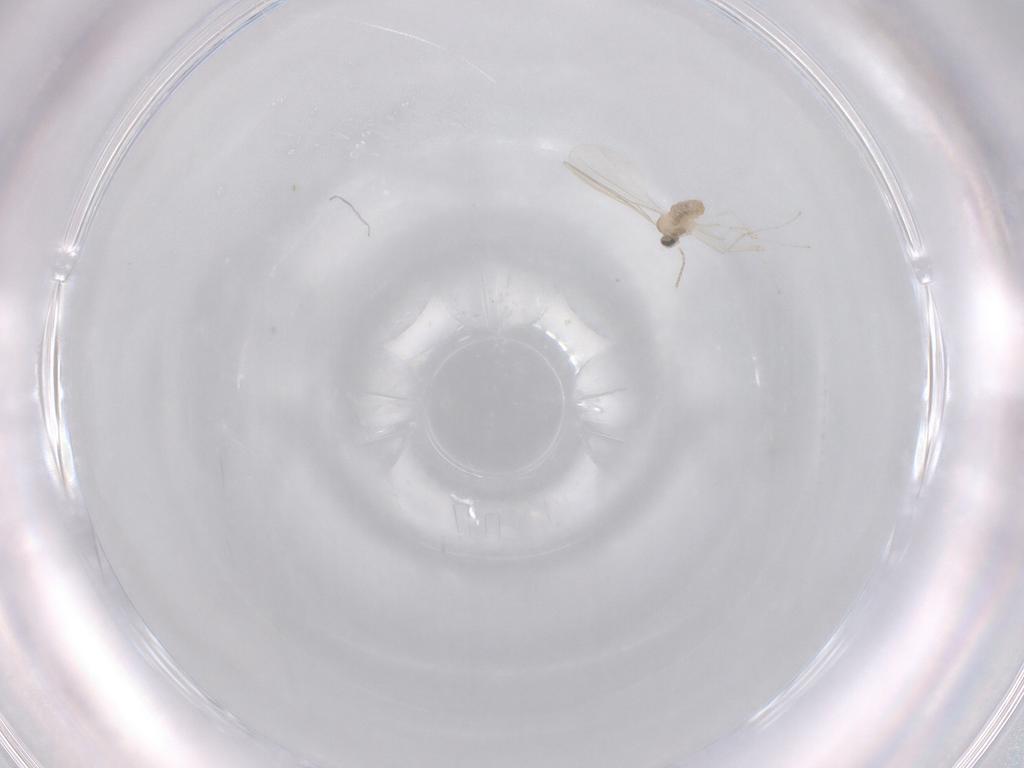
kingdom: Animalia
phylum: Arthropoda
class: Insecta
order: Diptera
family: Cecidomyiidae
